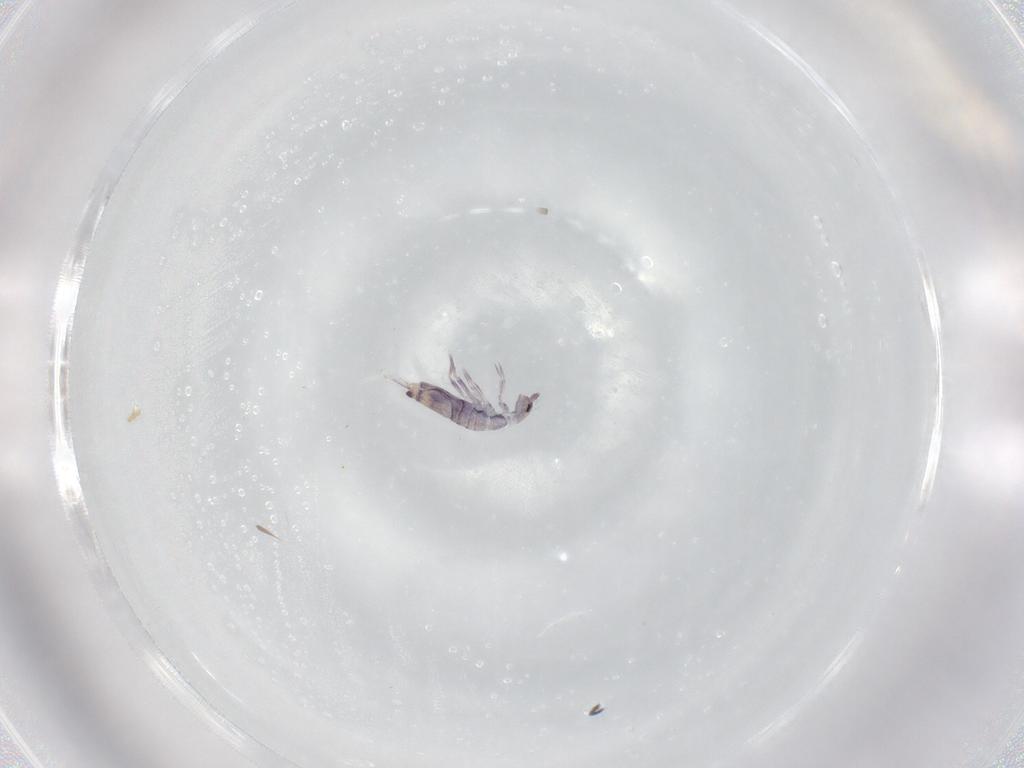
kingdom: Animalia
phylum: Arthropoda
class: Collembola
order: Entomobryomorpha
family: Entomobryidae
